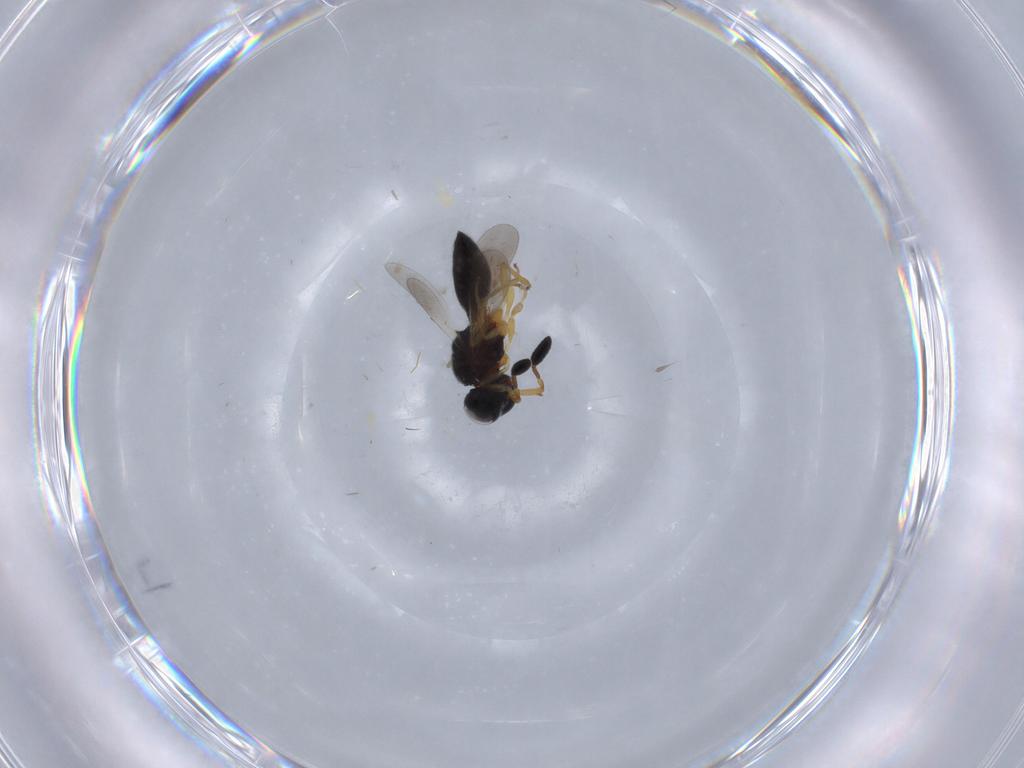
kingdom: Animalia
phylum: Arthropoda
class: Insecta
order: Hymenoptera
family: Scelionidae
